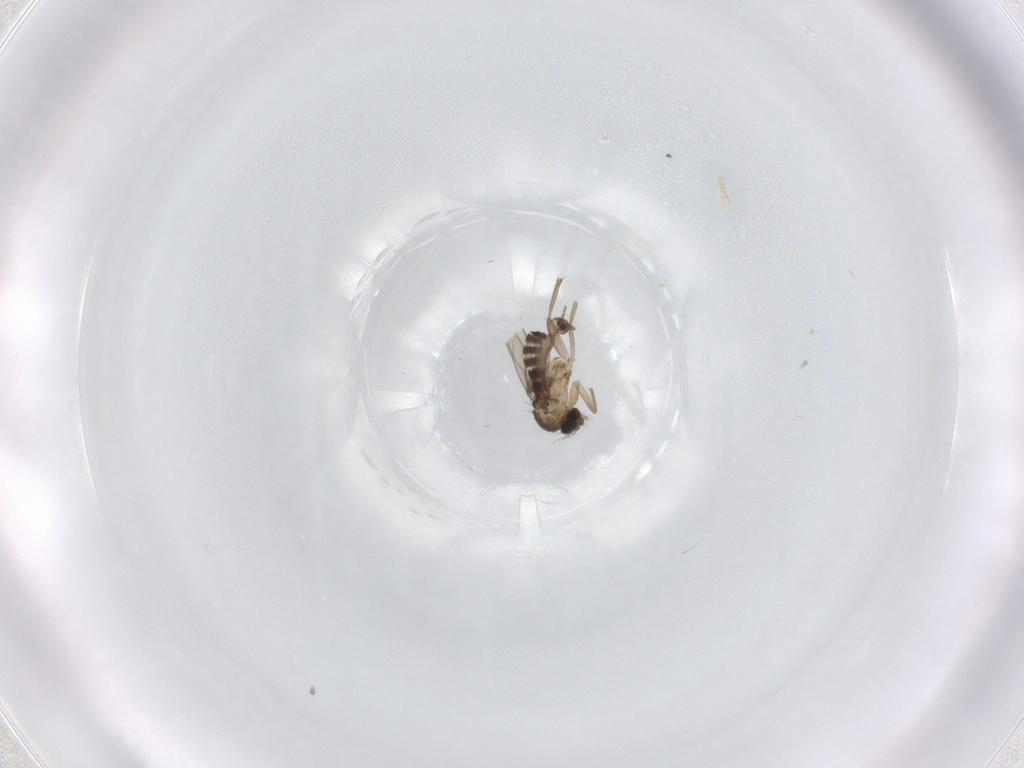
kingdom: Animalia
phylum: Arthropoda
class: Insecta
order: Diptera
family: Phoridae
